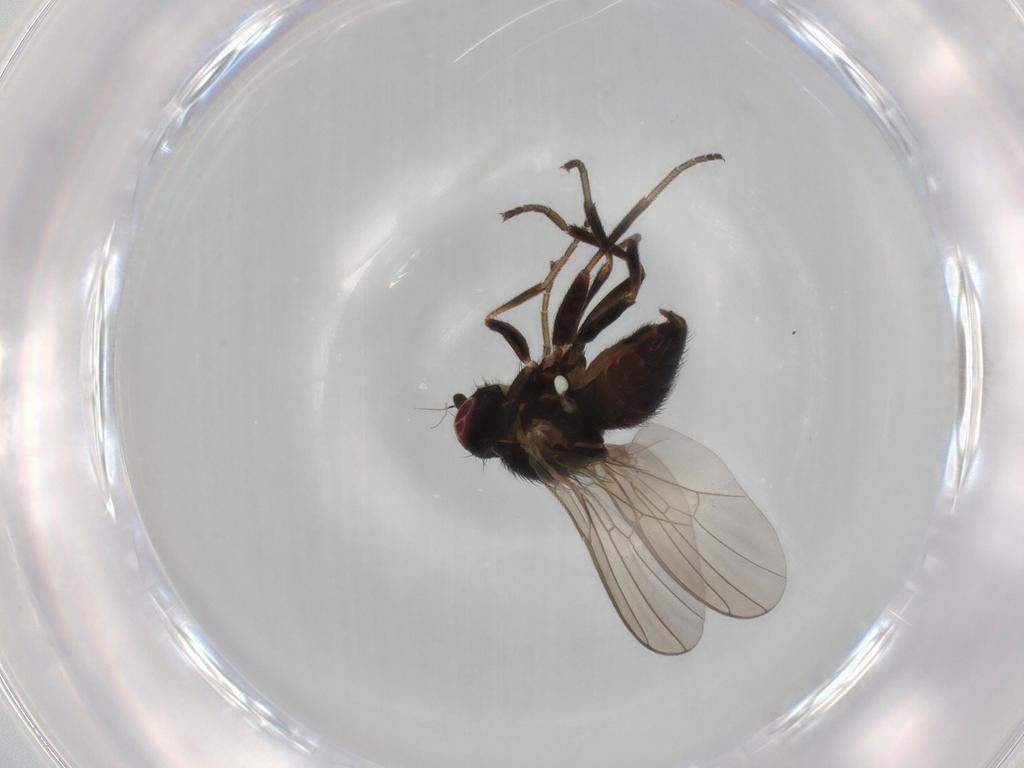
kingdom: Animalia
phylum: Arthropoda
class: Insecta
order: Diptera
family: Agromyzidae
